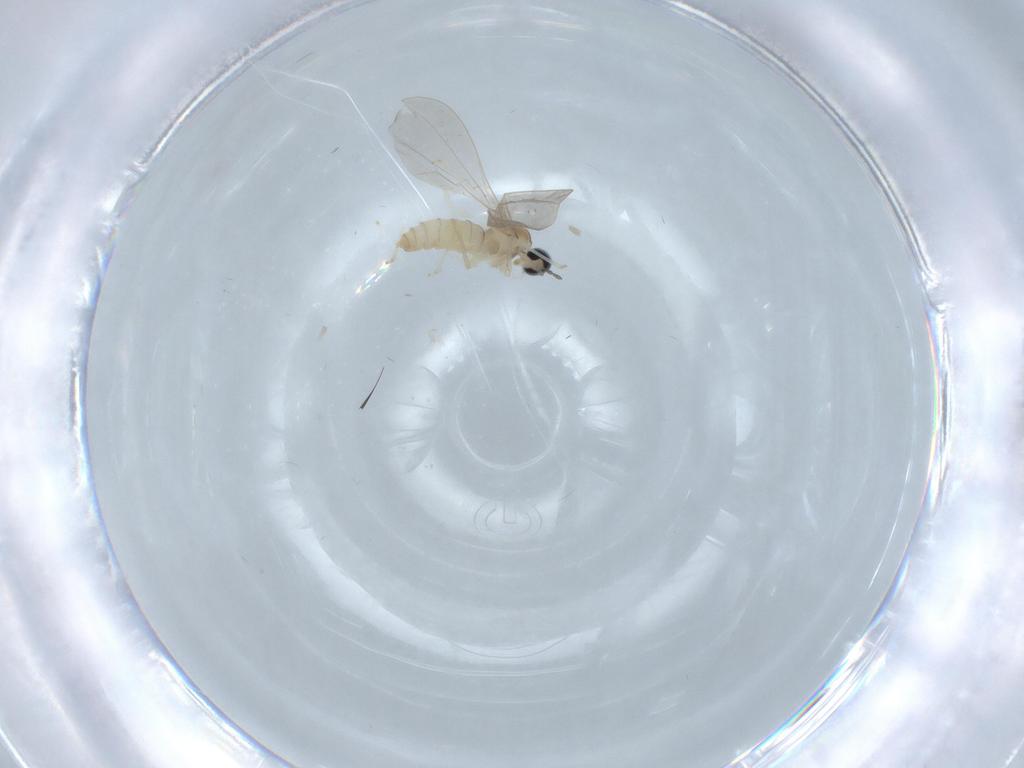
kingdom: Animalia
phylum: Arthropoda
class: Insecta
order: Diptera
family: Cecidomyiidae
